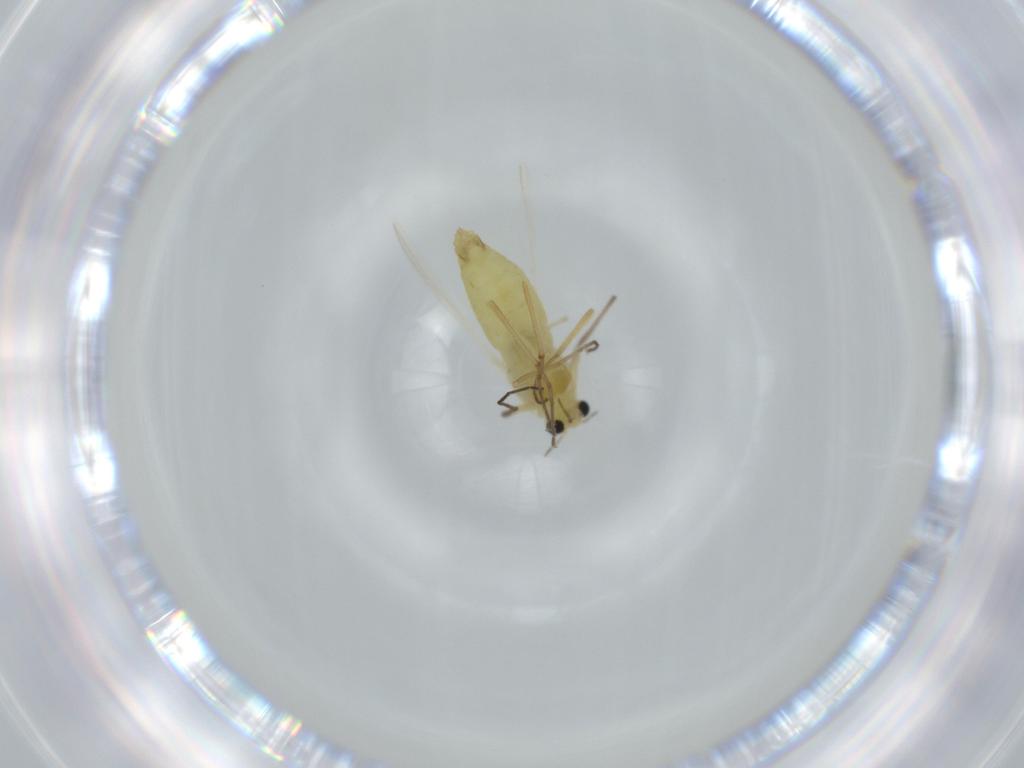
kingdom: Animalia
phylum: Arthropoda
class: Insecta
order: Diptera
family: Chironomidae
